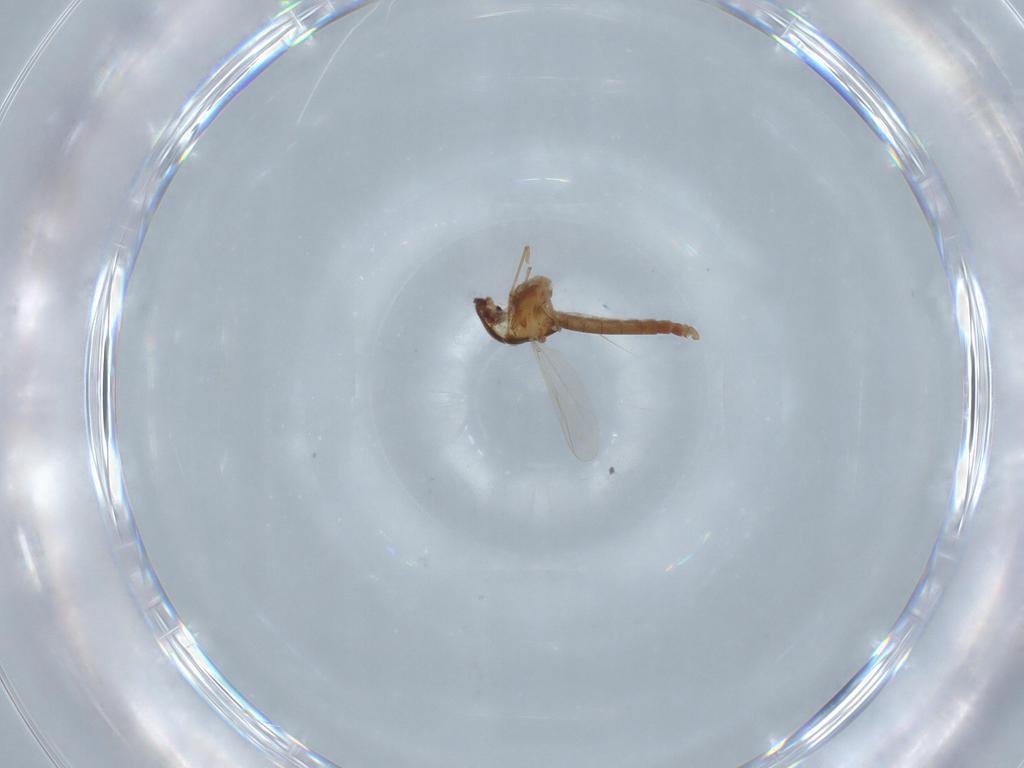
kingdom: Animalia
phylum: Arthropoda
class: Insecta
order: Diptera
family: Chironomidae
